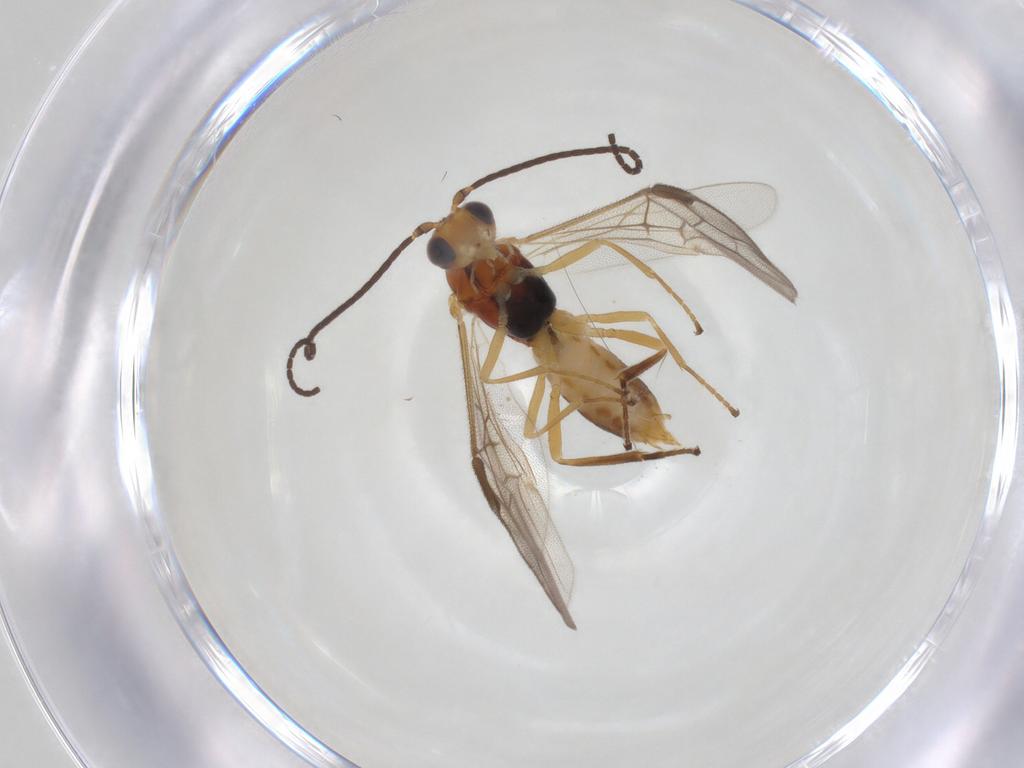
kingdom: Animalia
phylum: Arthropoda
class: Insecta
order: Hymenoptera
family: Braconidae
